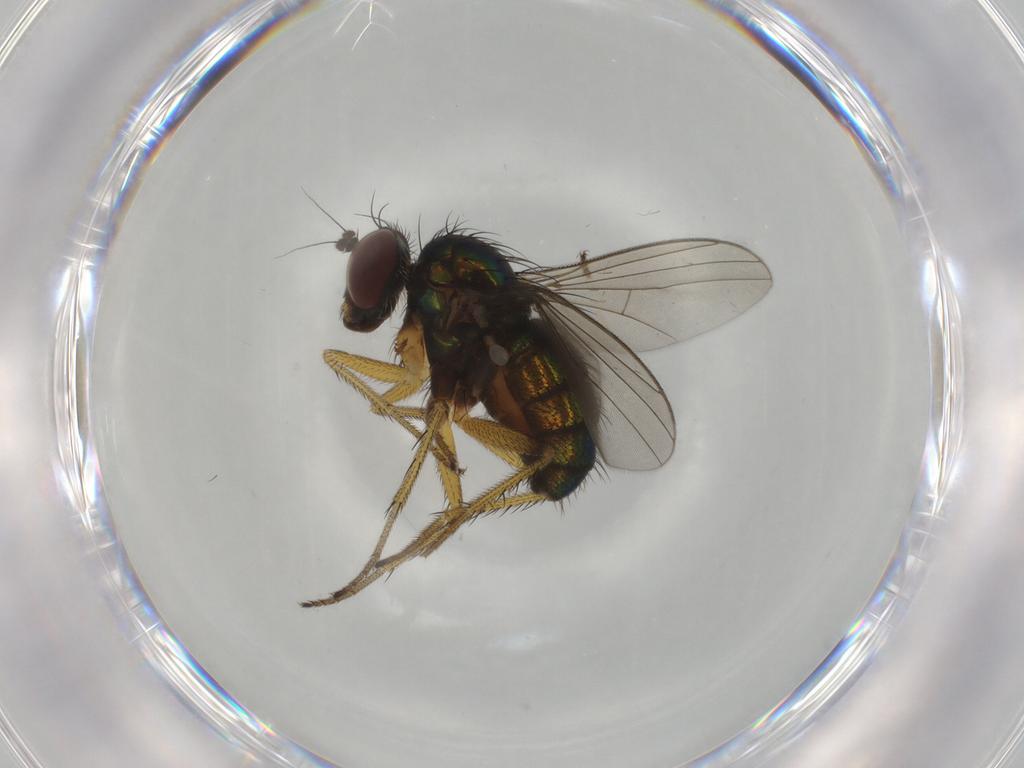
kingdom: Animalia
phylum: Arthropoda
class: Insecta
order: Diptera
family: Dolichopodidae
